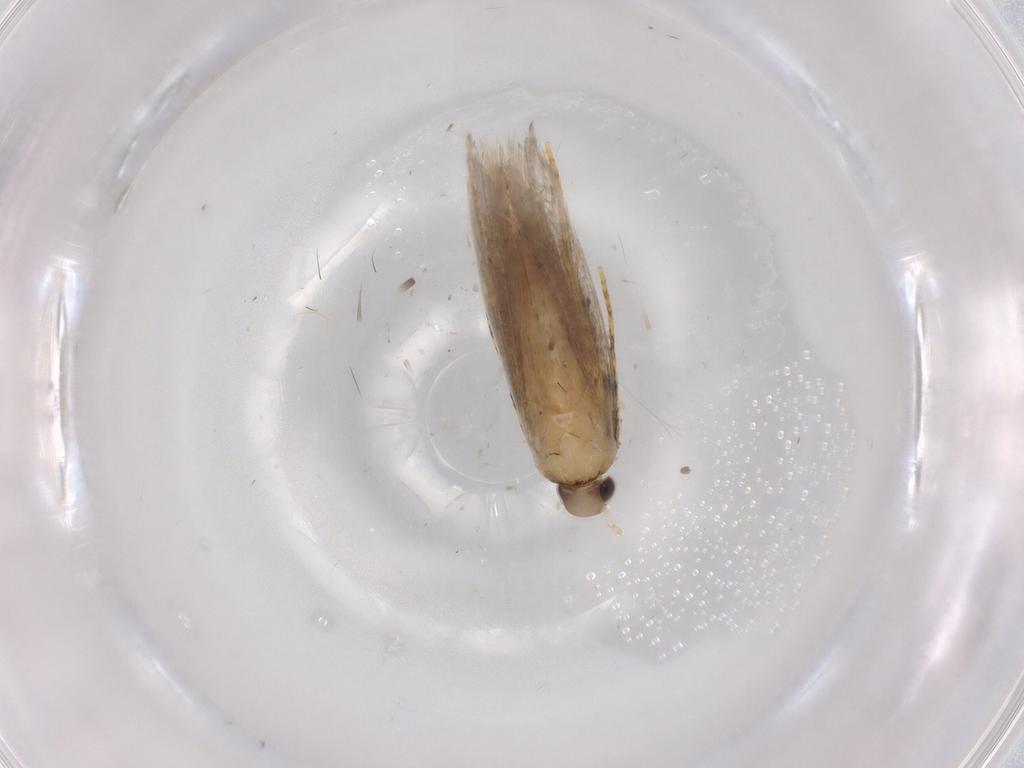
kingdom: Animalia
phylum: Arthropoda
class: Insecta
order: Lepidoptera
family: Autostichidae
